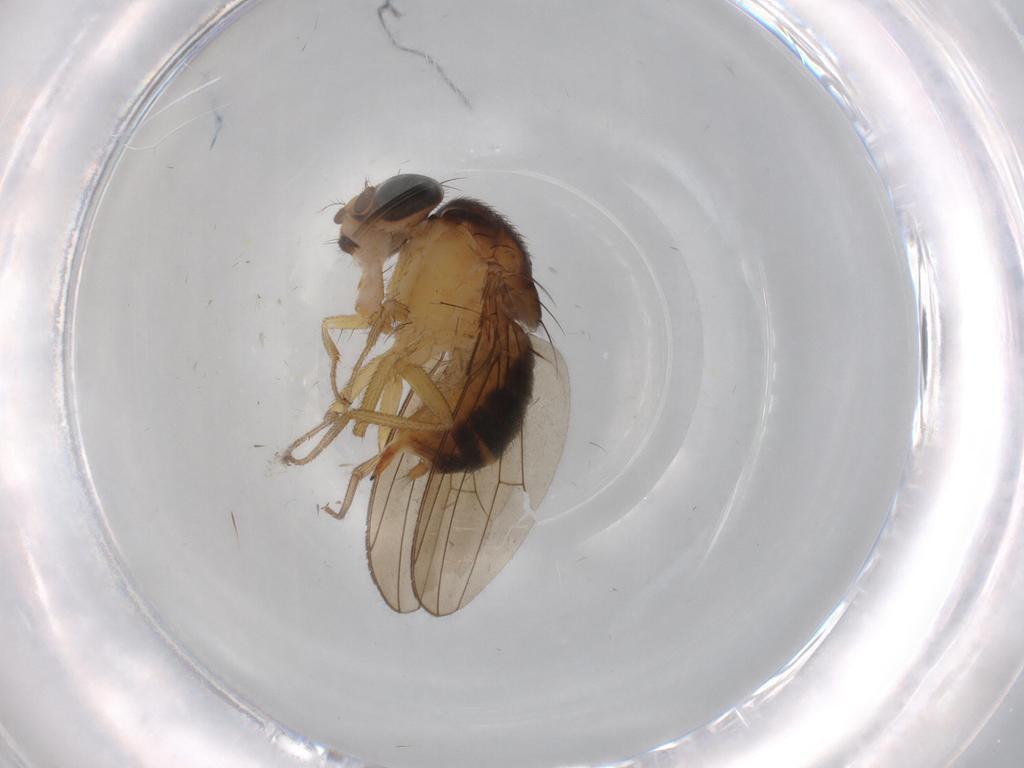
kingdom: Animalia
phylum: Arthropoda
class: Insecta
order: Diptera
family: Drosophilidae
